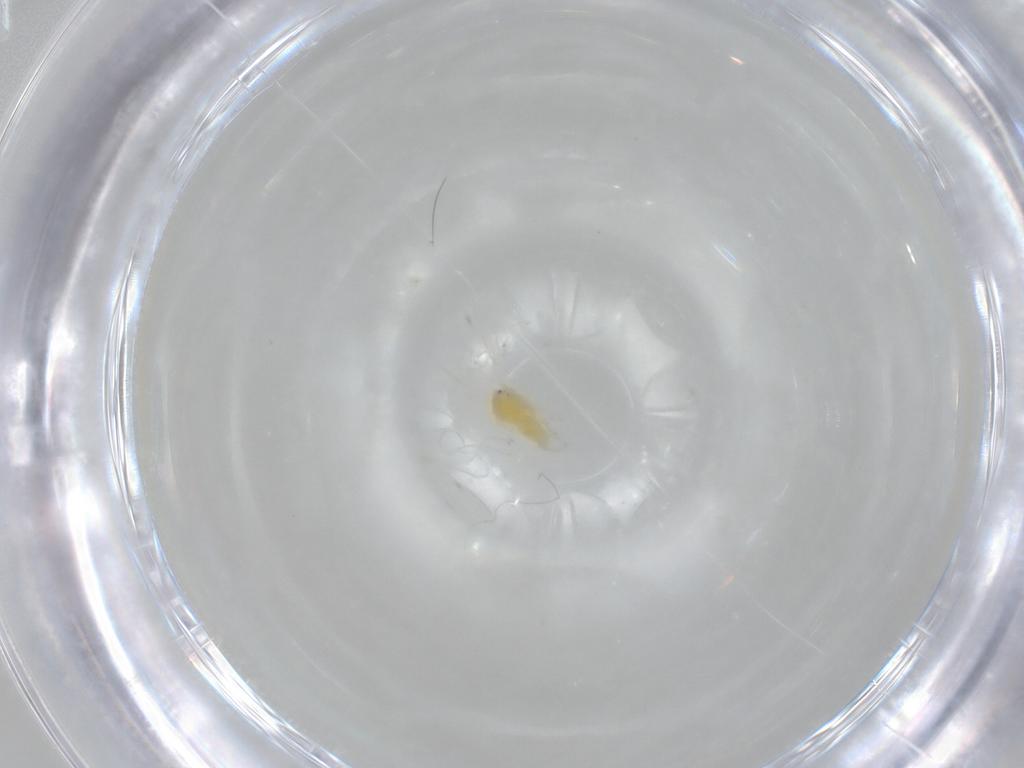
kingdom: Animalia
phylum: Arthropoda
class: Insecta
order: Hemiptera
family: Aleyrodidae
